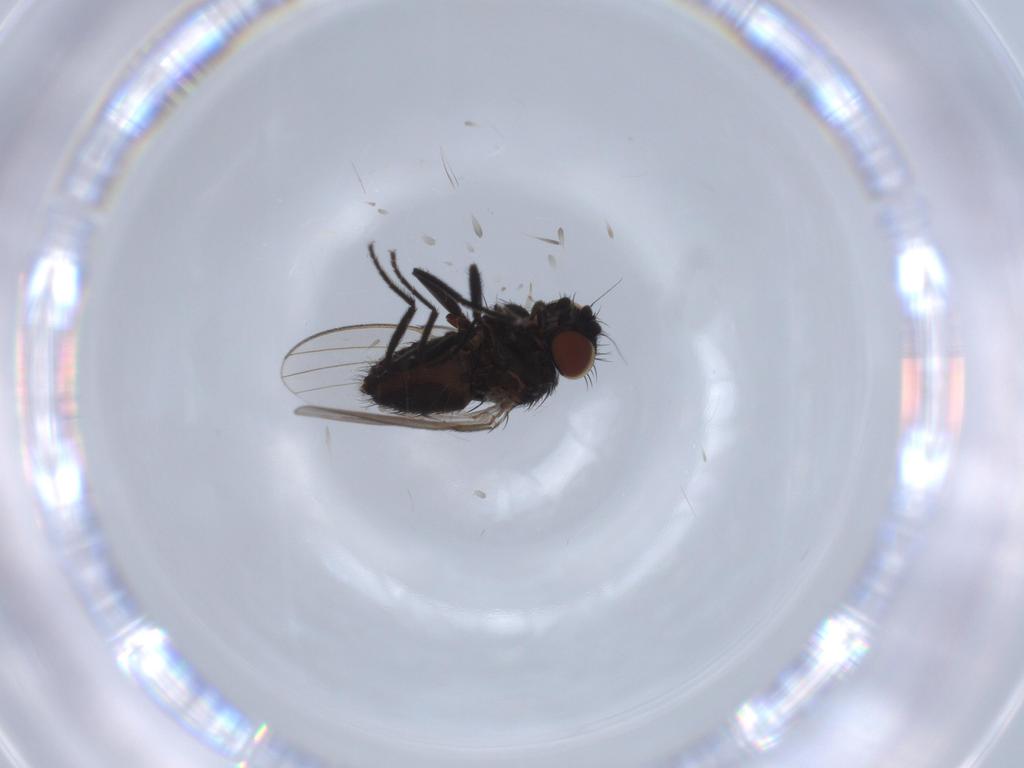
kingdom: Animalia
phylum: Arthropoda
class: Insecta
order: Diptera
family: Milichiidae
